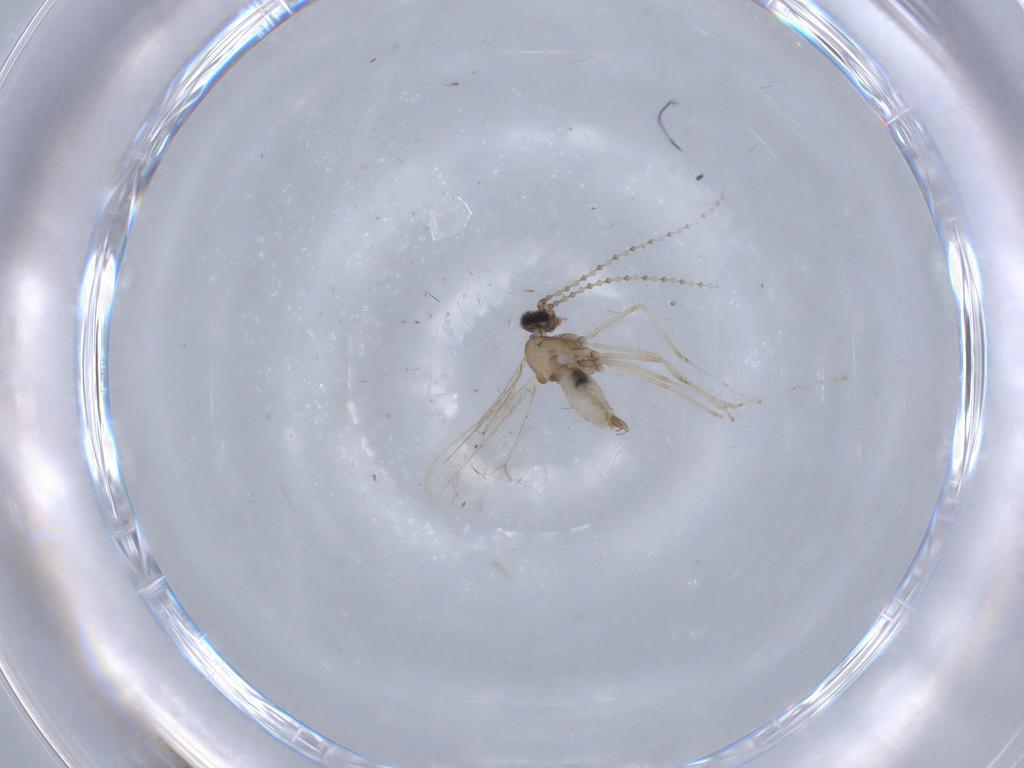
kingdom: Animalia
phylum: Arthropoda
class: Insecta
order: Diptera
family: Cecidomyiidae
